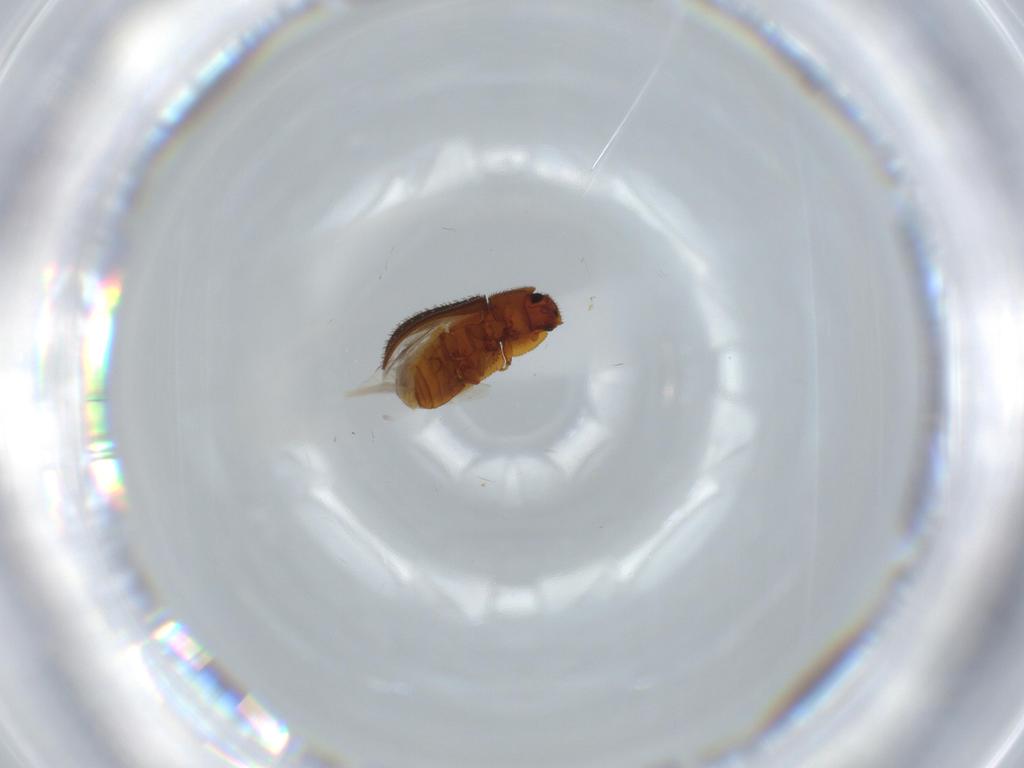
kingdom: Animalia
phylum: Arthropoda
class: Insecta
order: Coleoptera
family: Zopheridae
